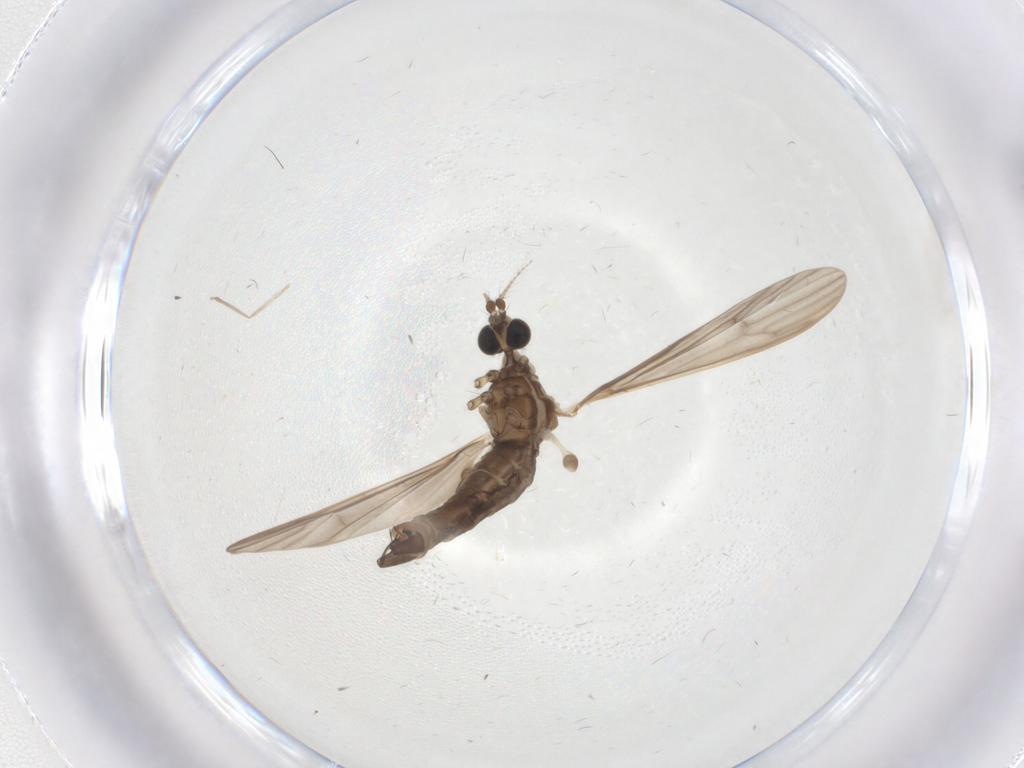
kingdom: Animalia
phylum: Arthropoda
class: Insecta
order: Diptera
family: Limoniidae
